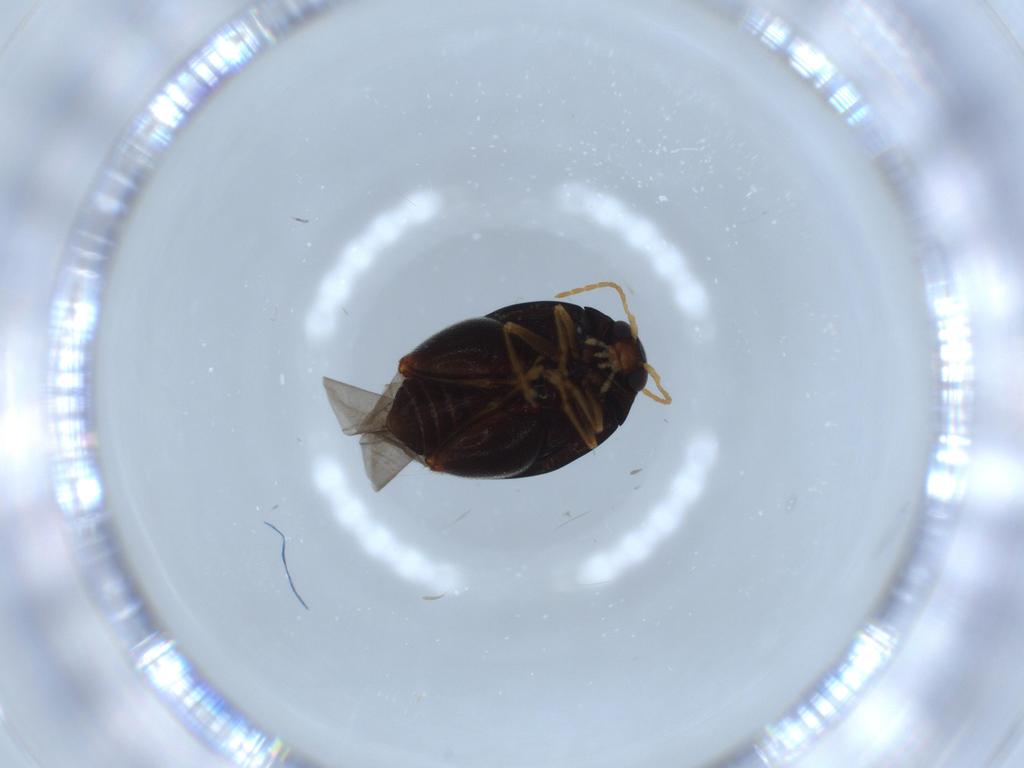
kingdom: Animalia
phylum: Arthropoda
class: Insecta
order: Coleoptera
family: Chrysomelidae
